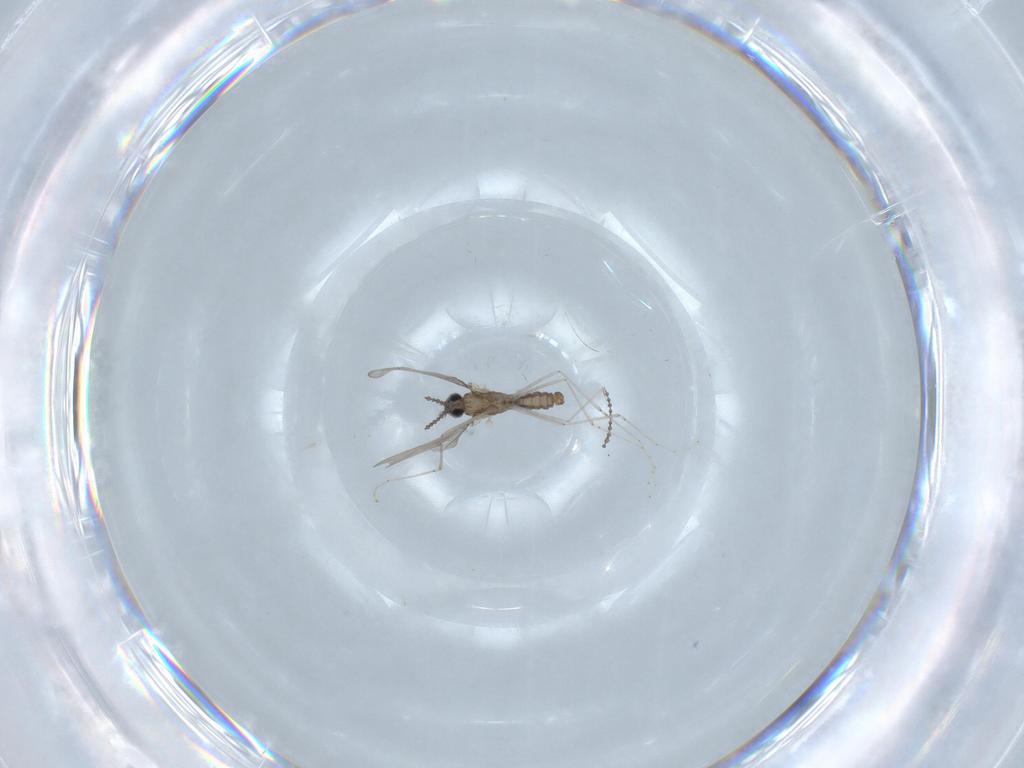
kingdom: Animalia
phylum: Arthropoda
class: Insecta
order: Diptera
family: Chironomidae
